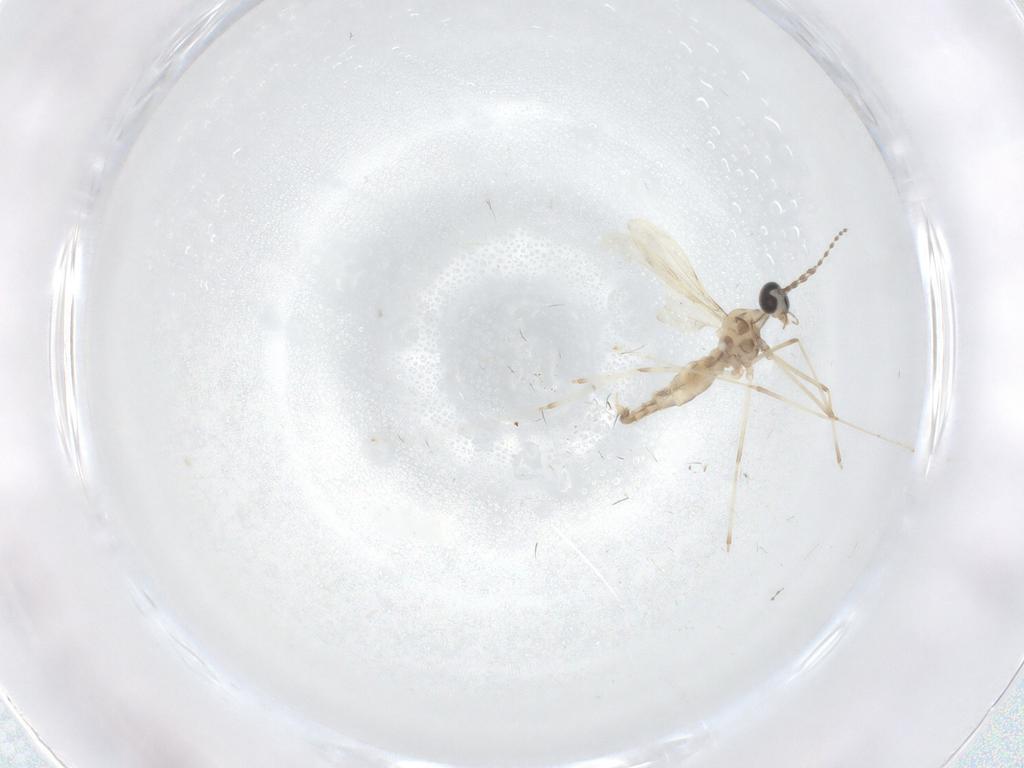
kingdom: Animalia
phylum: Arthropoda
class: Insecta
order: Diptera
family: Cecidomyiidae
